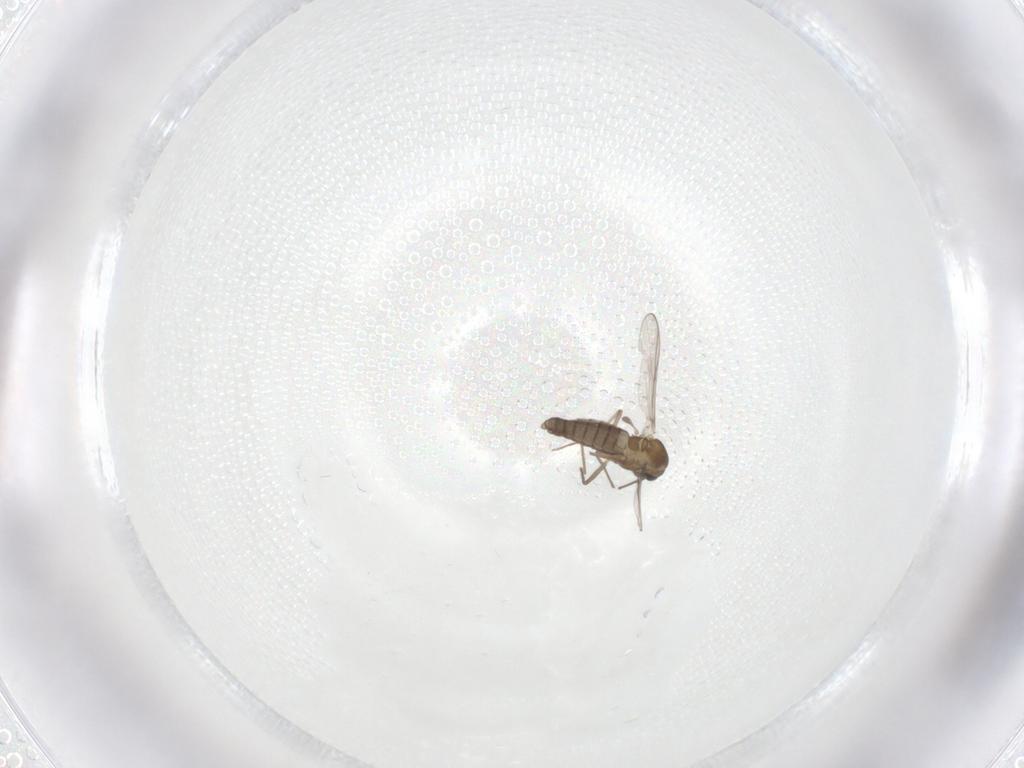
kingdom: Animalia
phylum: Arthropoda
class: Insecta
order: Diptera
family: Chironomidae
